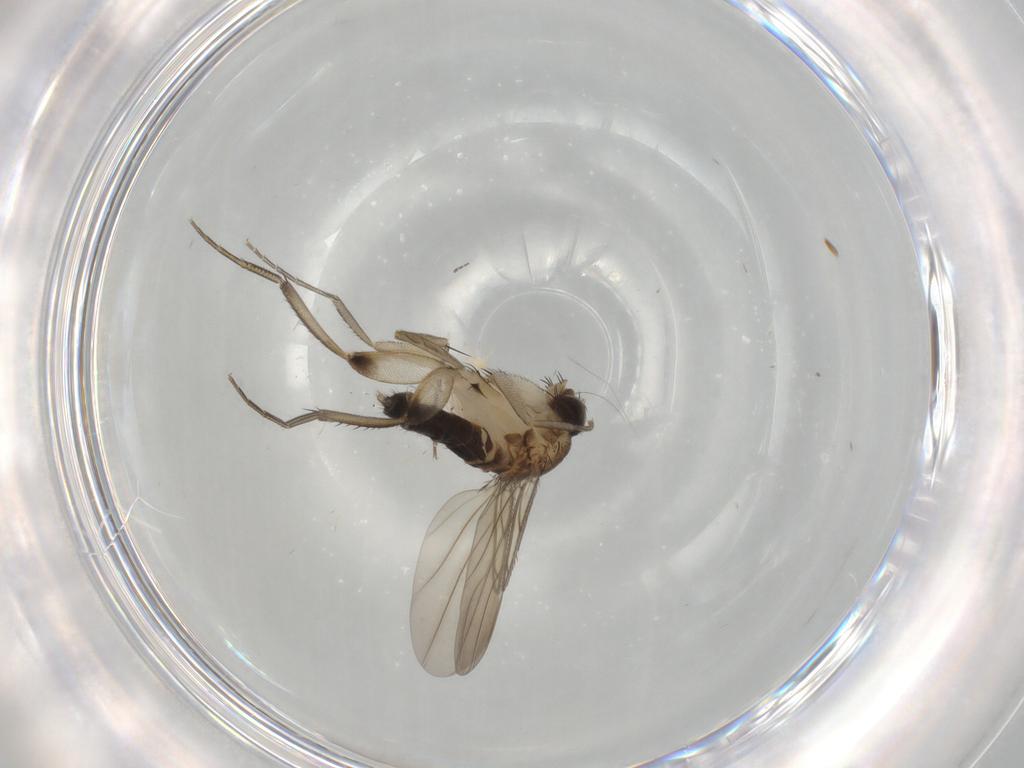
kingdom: Animalia
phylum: Arthropoda
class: Insecta
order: Diptera
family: Phoridae
